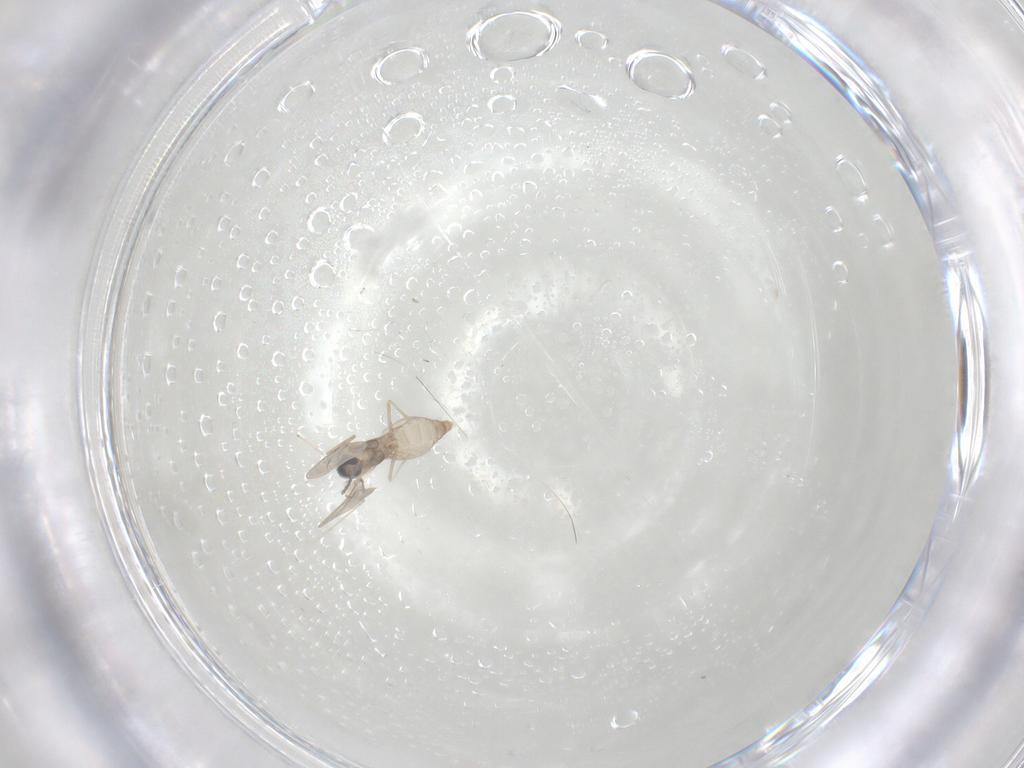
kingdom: Animalia
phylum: Arthropoda
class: Insecta
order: Diptera
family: Cecidomyiidae
